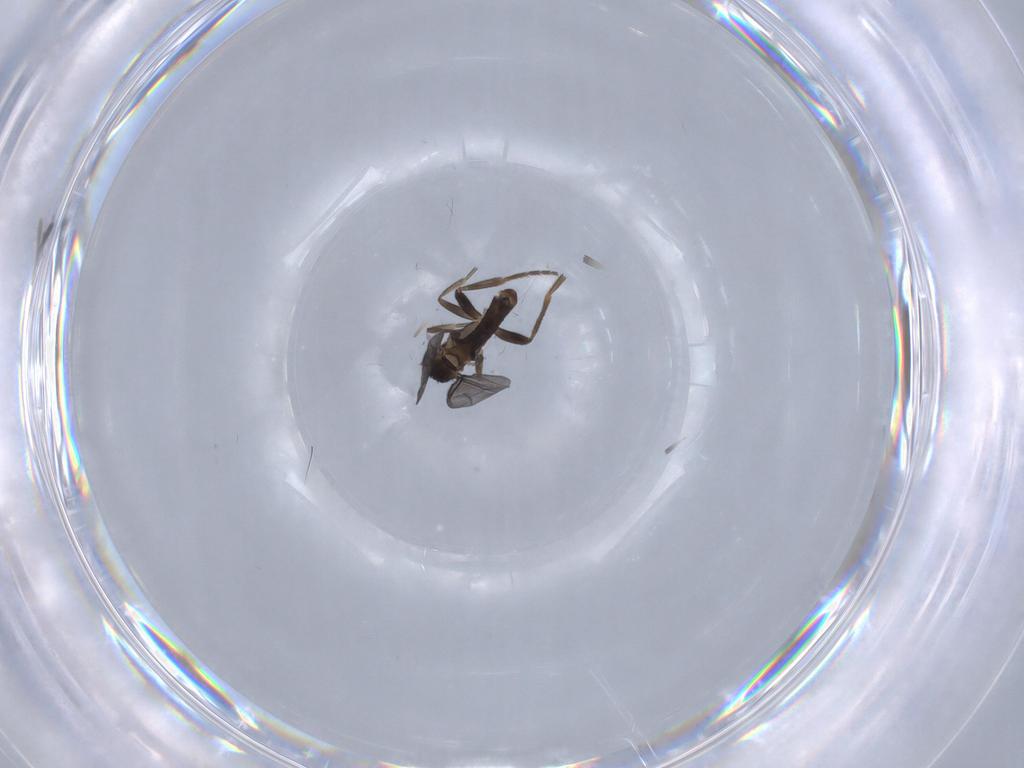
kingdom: Animalia
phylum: Arthropoda
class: Insecta
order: Diptera
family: Phoridae
